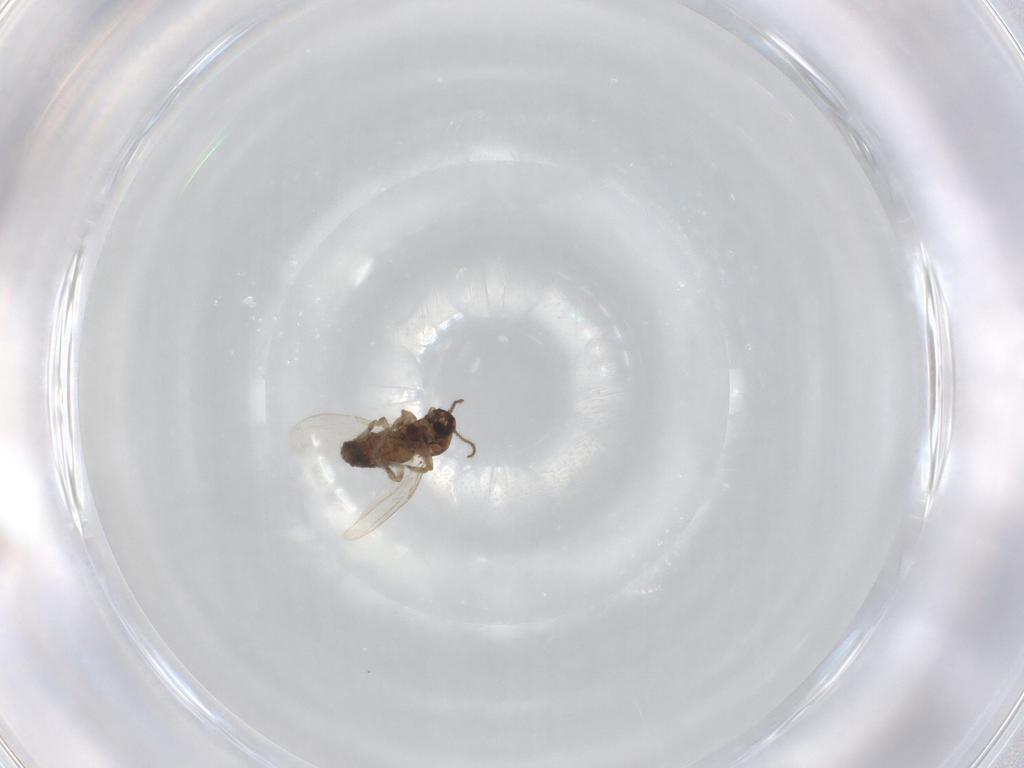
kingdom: Animalia
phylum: Arthropoda
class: Insecta
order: Diptera
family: Ceratopogonidae
